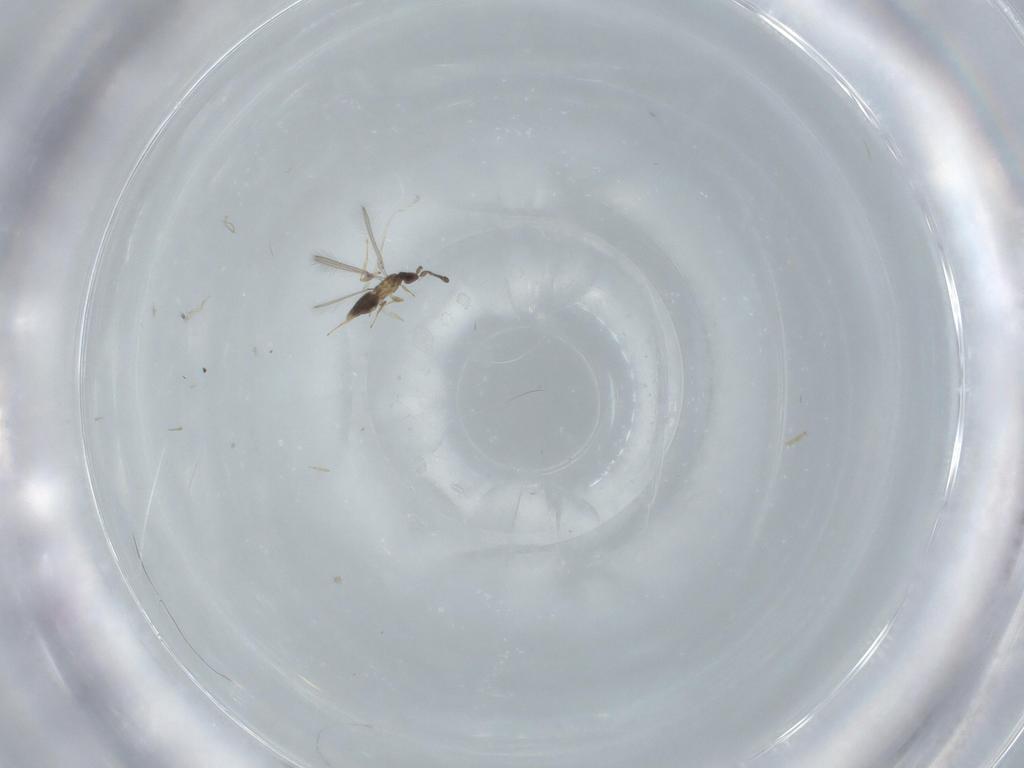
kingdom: Animalia
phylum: Arthropoda
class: Insecta
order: Hymenoptera
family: Mymaridae
